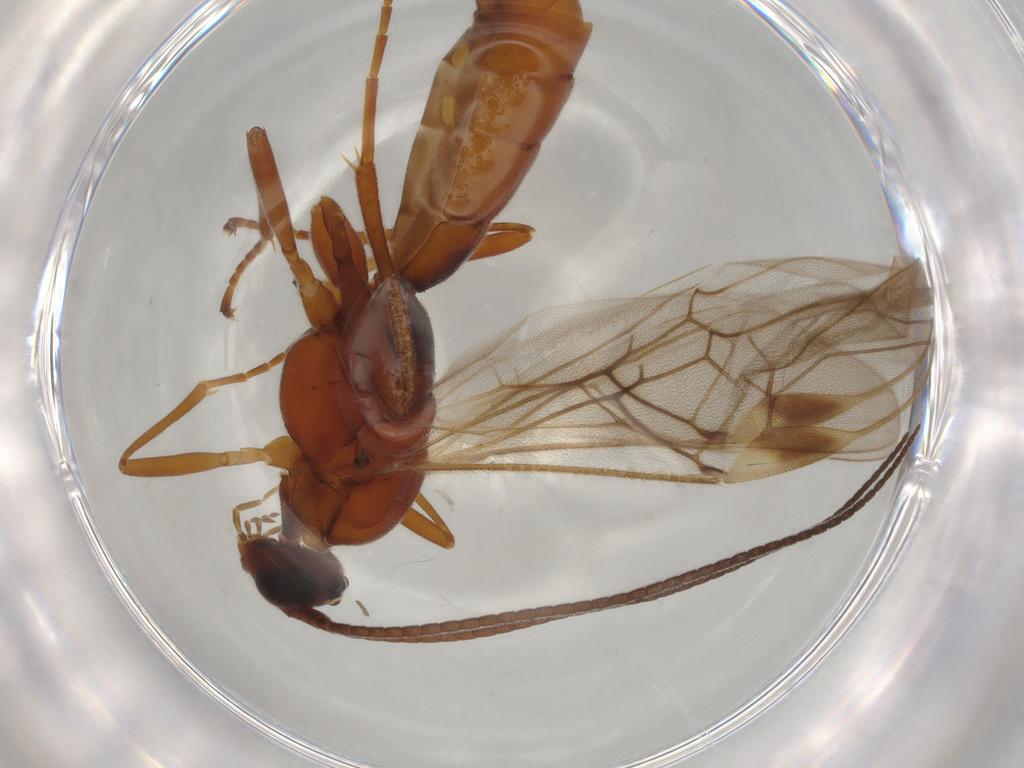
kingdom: Animalia
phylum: Arthropoda
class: Insecta
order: Hymenoptera
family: Braconidae
